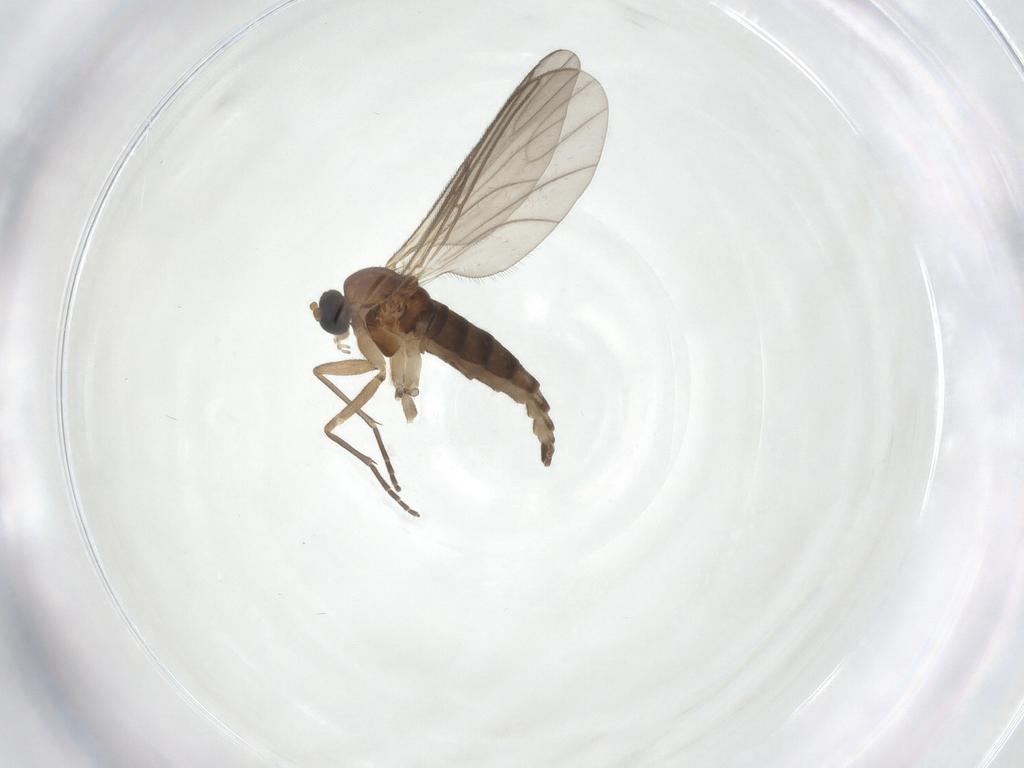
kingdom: Animalia
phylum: Arthropoda
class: Insecta
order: Diptera
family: Sciaridae
